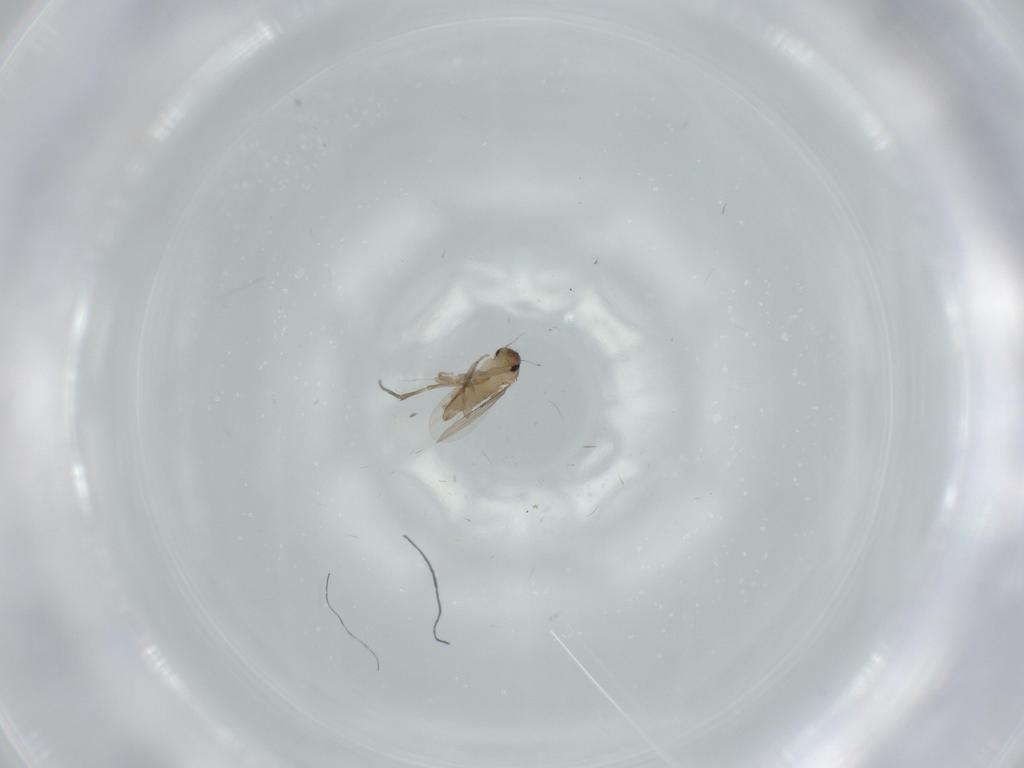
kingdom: Animalia
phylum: Arthropoda
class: Insecta
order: Diptera
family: Phoridae
